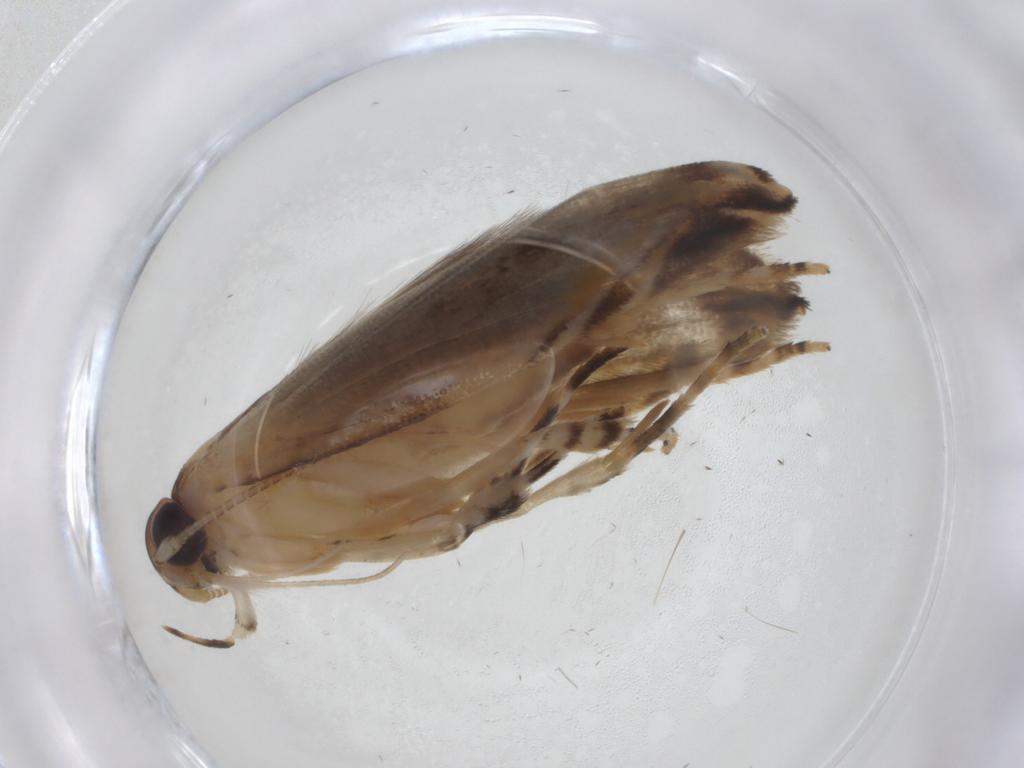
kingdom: Animalia
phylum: Arthropoda
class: Insecta
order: Lepidoptera
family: Gelechiidae
